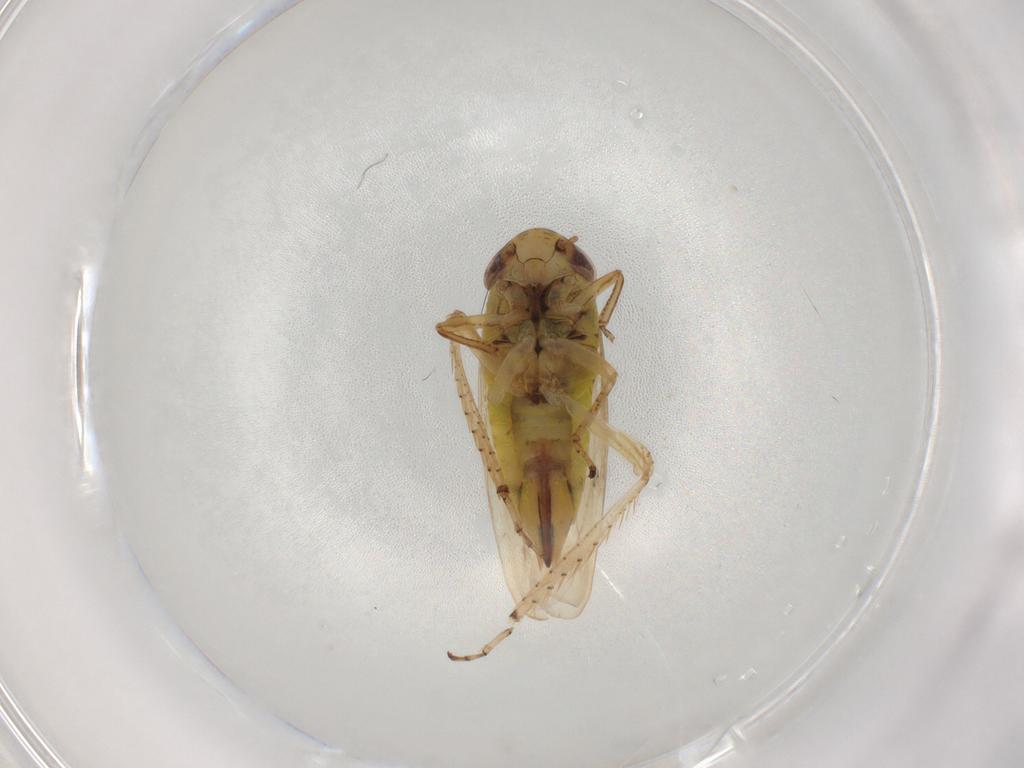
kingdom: Animalia
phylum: Arthropoda
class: Insecta
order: Hemiptera
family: Cicadellidae
